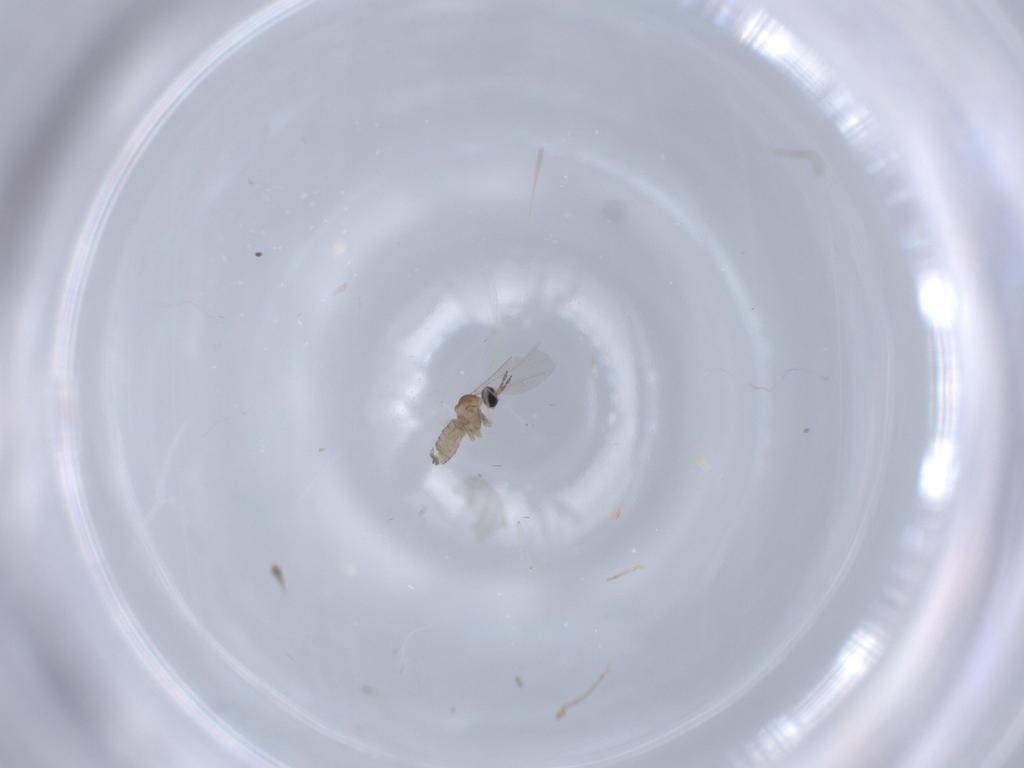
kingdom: Animalia
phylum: Arthropoda
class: Insecta
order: Diptera
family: Cecidomyiidae
